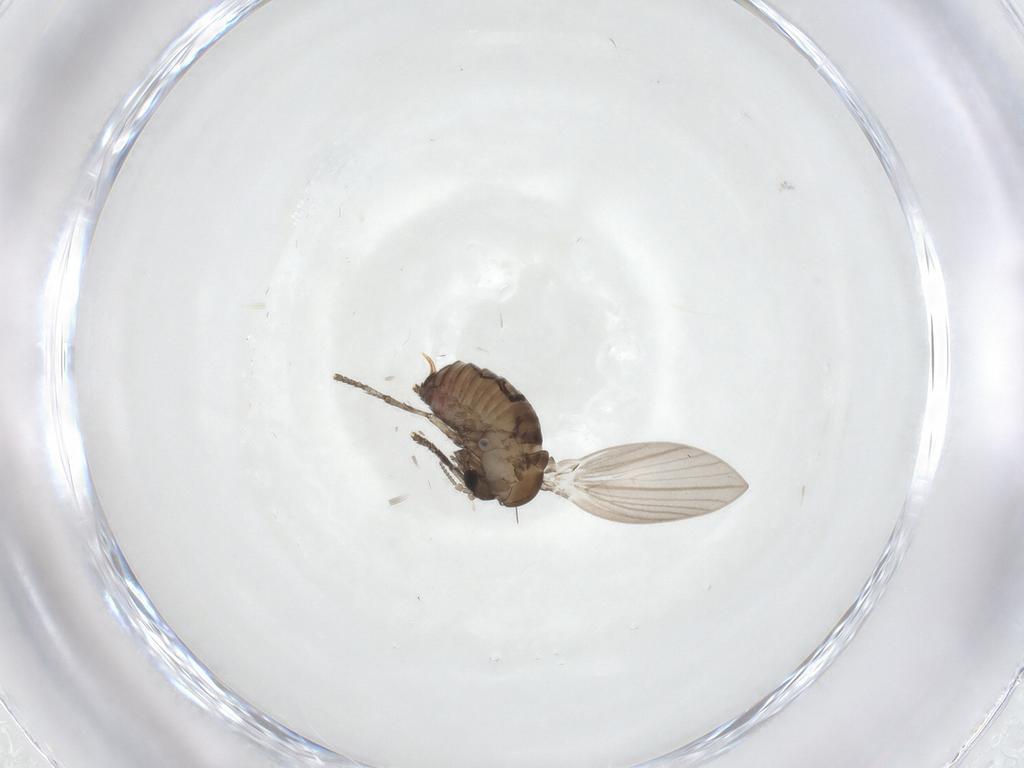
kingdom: Animalia
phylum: Arthropoda
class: Insecta
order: Diptera
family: Psychodidae
